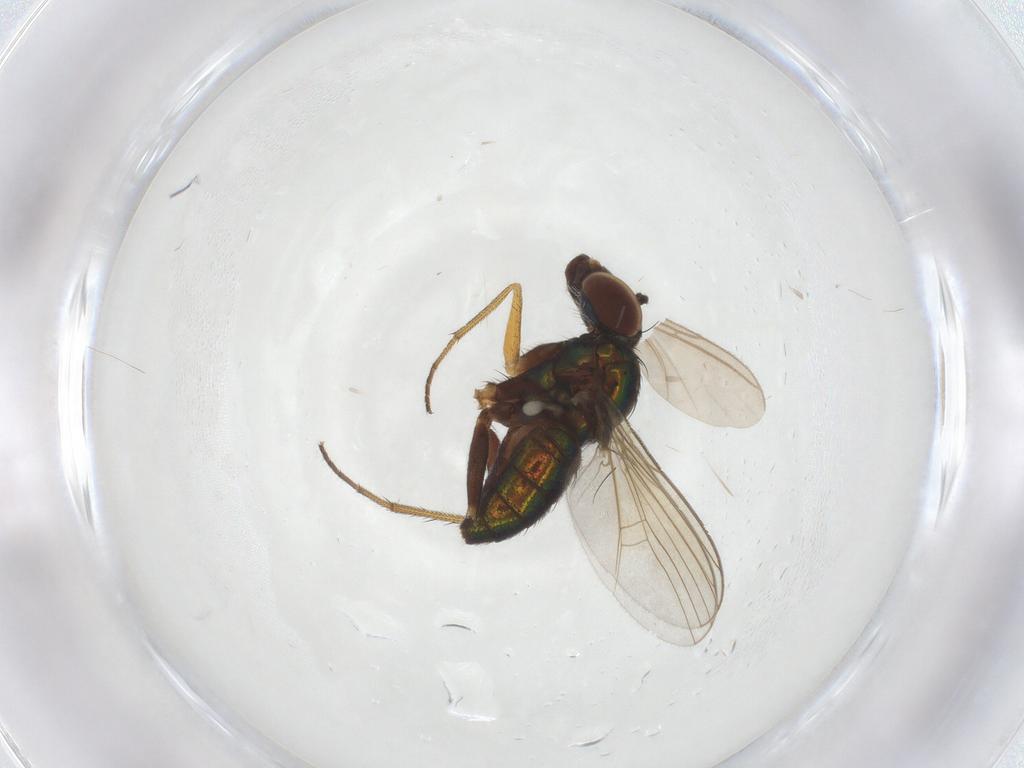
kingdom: Animalia
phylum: Arthropoda
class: Insecta
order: Diptera
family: Sciaridae
